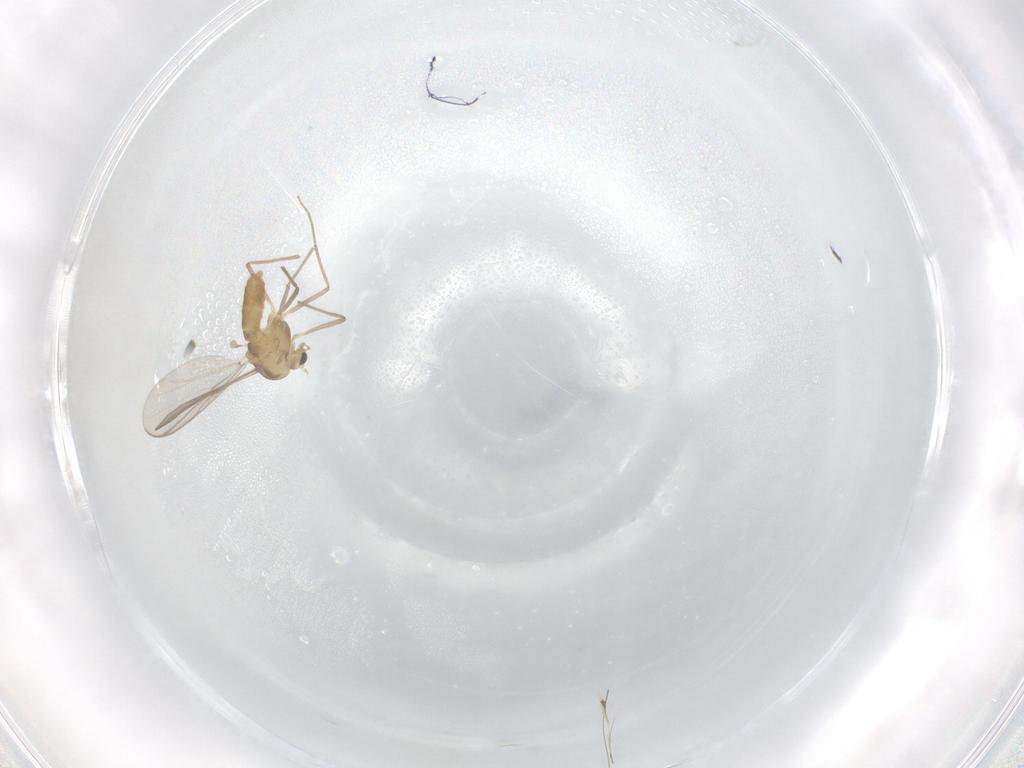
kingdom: Animalia
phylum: Arthropoda
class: Insecta
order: Diptera
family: Chironomidae
